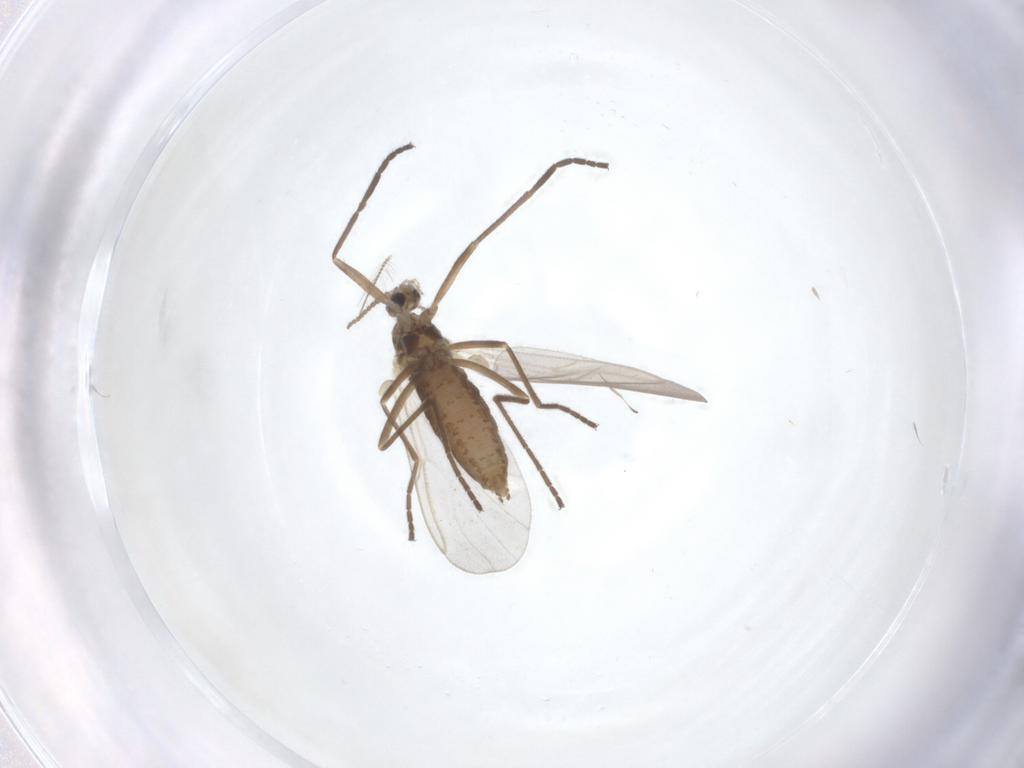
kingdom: Animalia
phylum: Arthropoda
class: Insecta
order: Diptera
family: Cecidomyiidae
